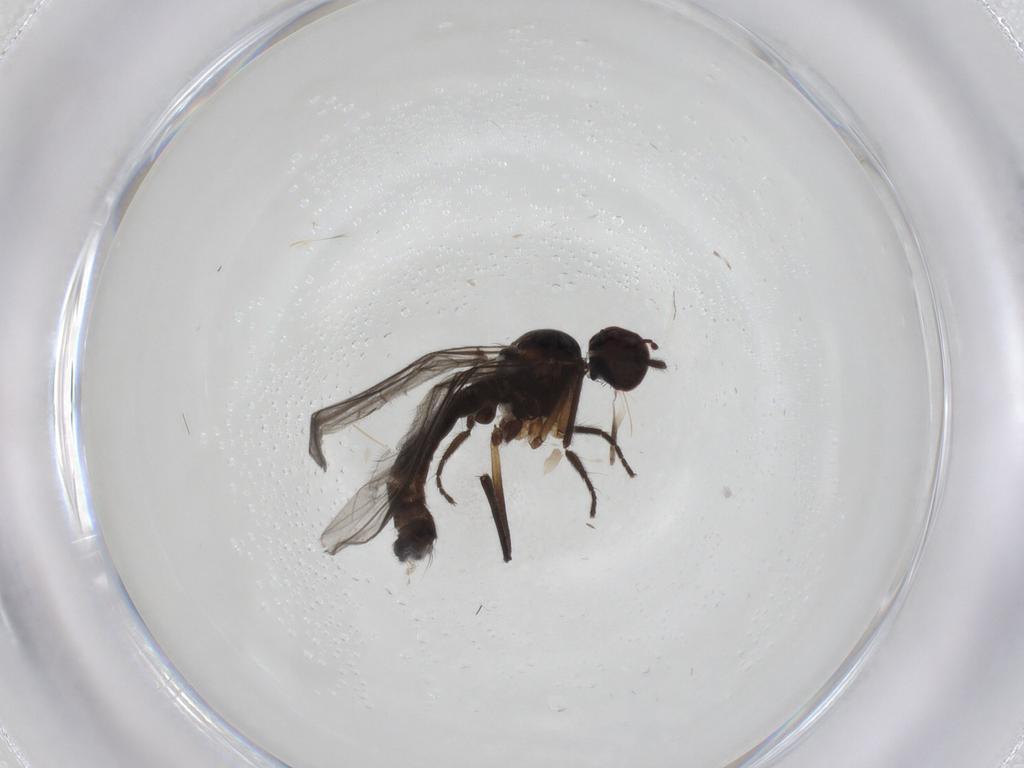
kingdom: Animalia
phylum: Arthropoda
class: Insecta
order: Diptera
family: Empididae
